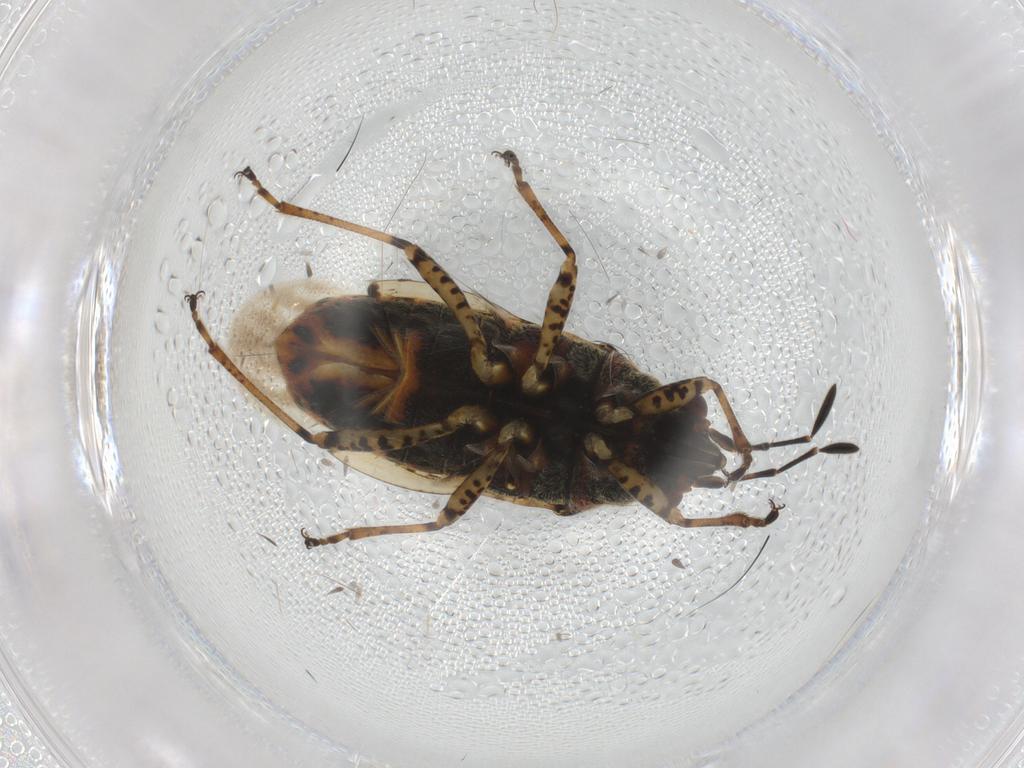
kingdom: Animalia
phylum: Arthropoda
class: Insecta
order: Hemiptera
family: Lygaeidae
